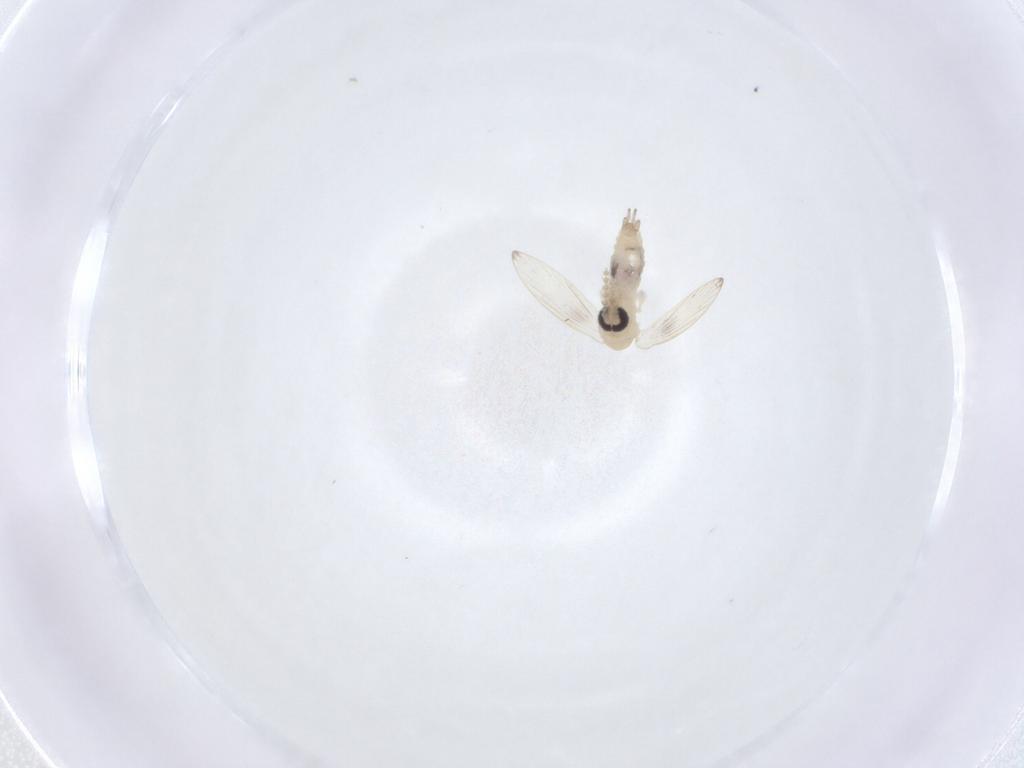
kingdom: Animalia
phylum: Arthropoda
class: Insecta
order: Diptera
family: Psychodidae
